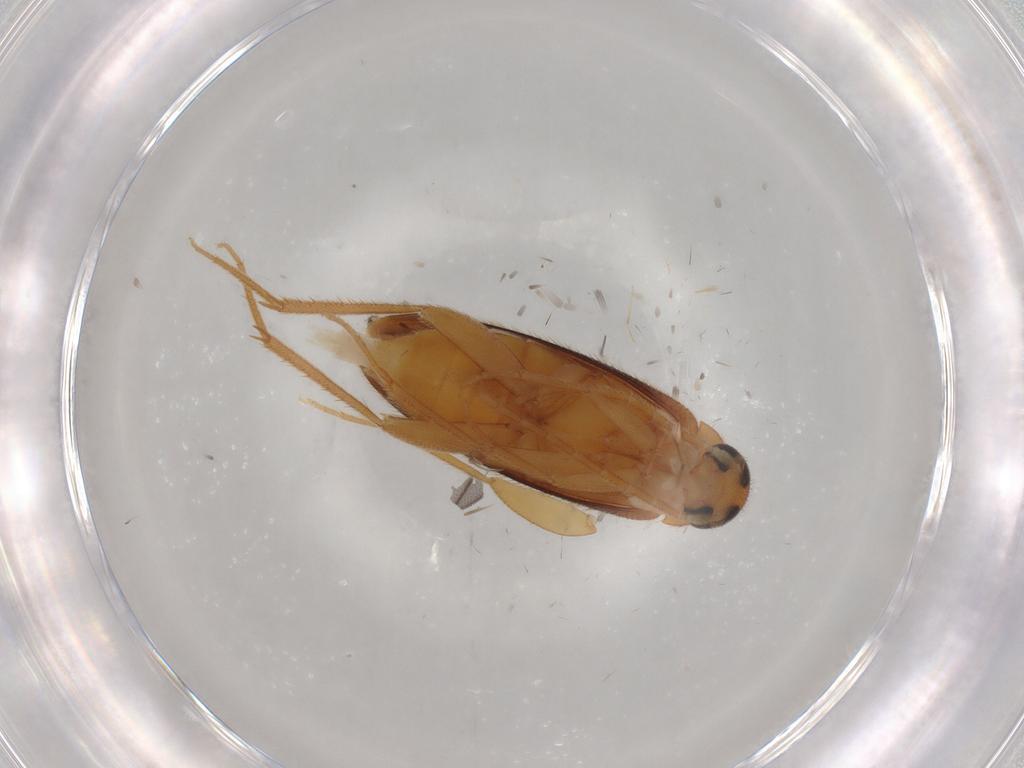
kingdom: Animalia
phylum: Arthropoda
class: Insecta
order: Coleoptera
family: Scraptiidae
